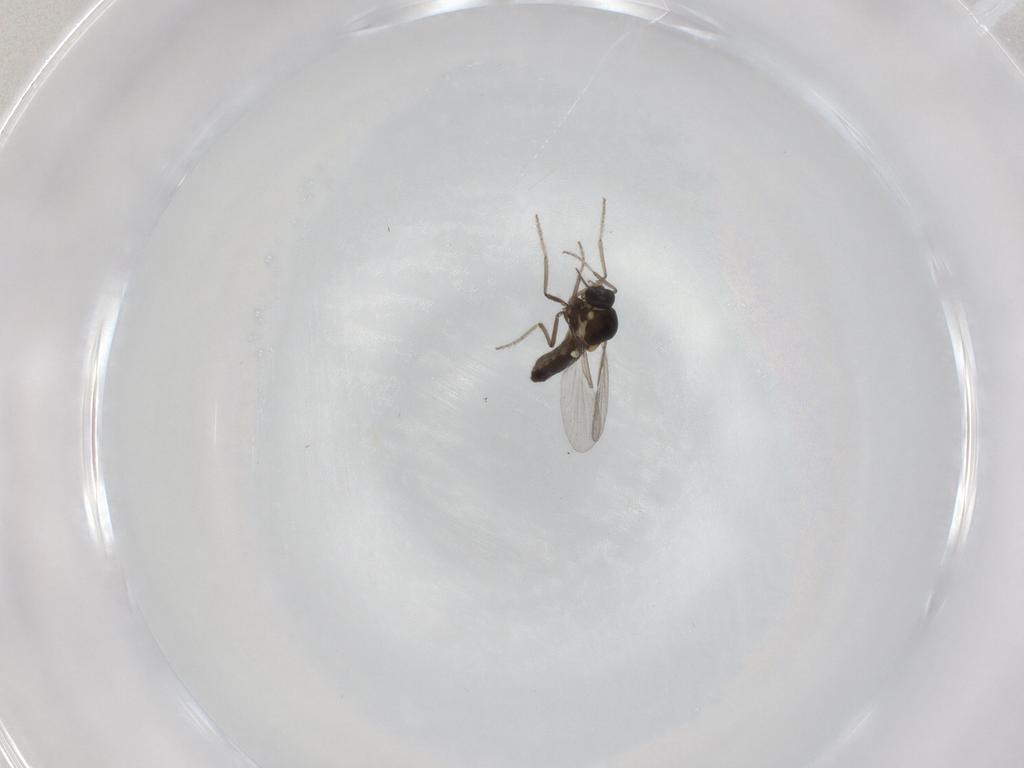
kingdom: Animalia
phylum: Arthropoda
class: Insecta
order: Diptera
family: Ceratopogonidae
